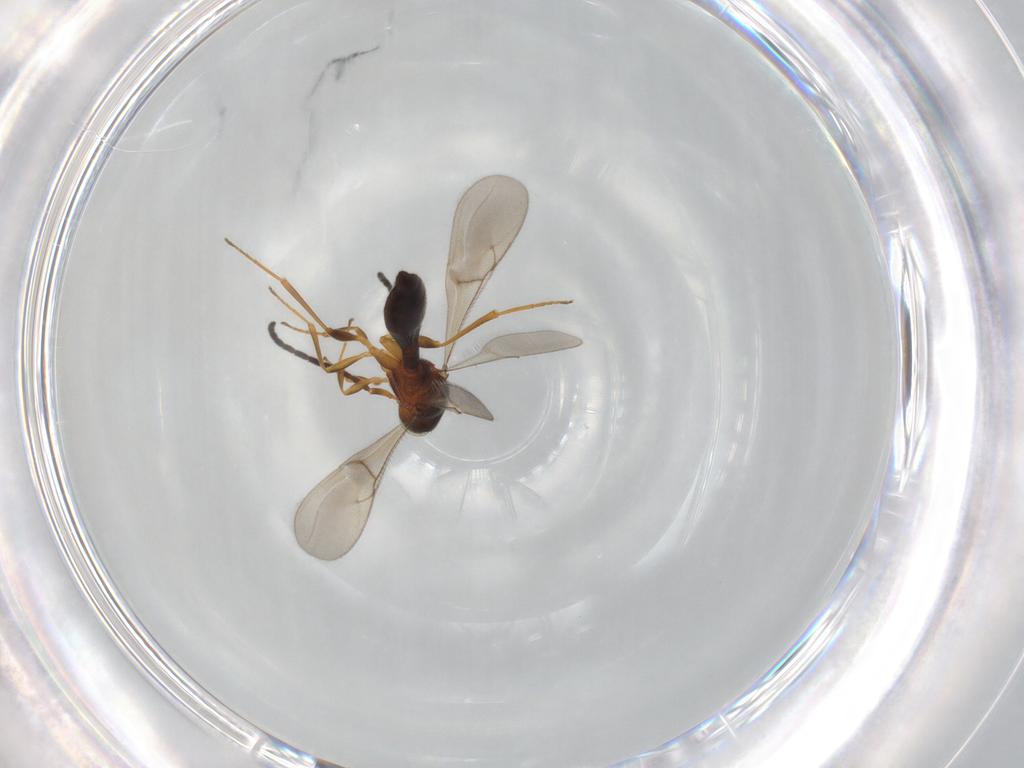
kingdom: Animalia
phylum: Arthropoda
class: Insecta
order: Hymenoptera
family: Scelionidae
